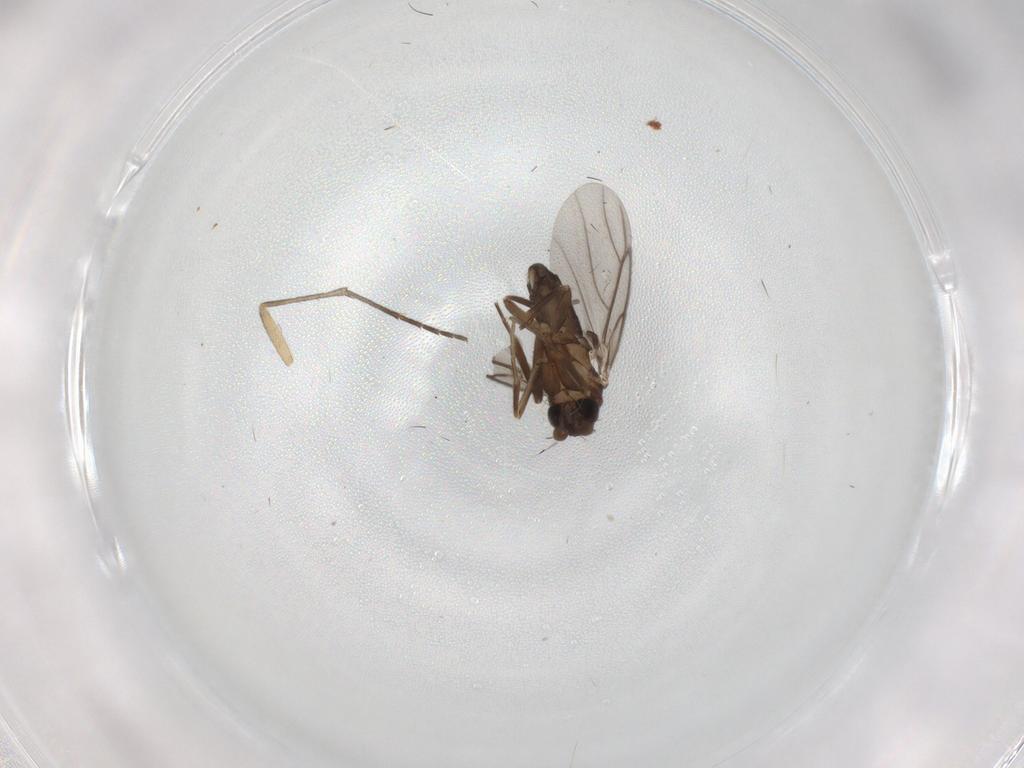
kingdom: Animalia
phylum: Arthropoda
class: Insecta
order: Diptera
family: Sciaridae
